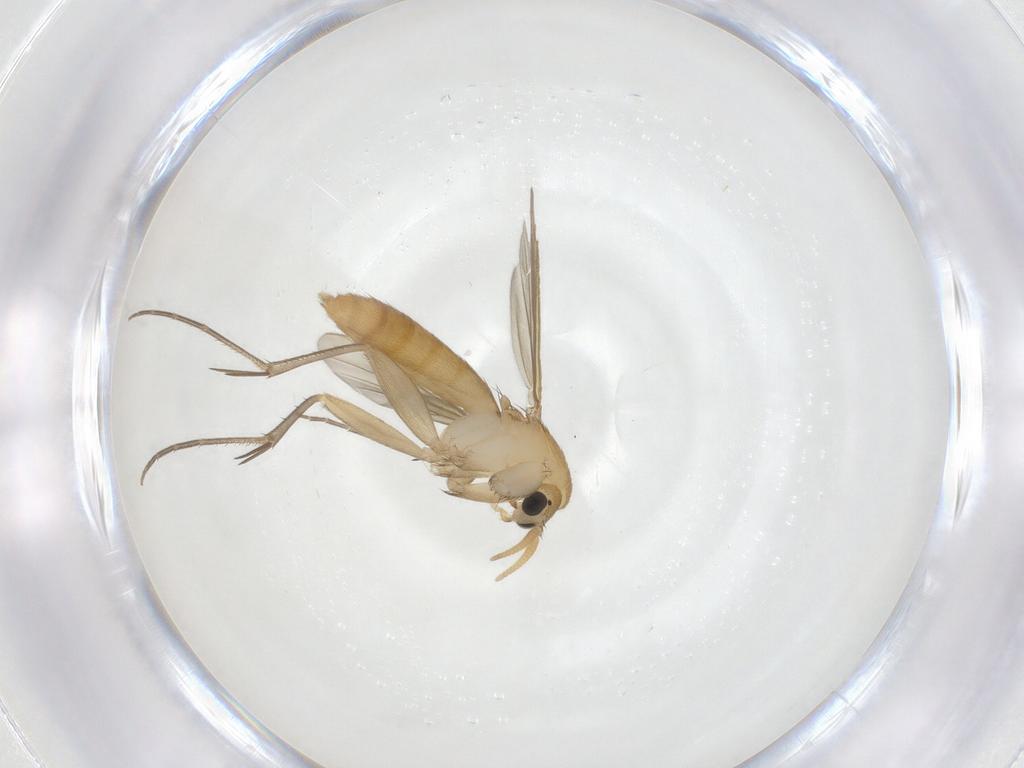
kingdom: Animalia
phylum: Arthropoda
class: Insecta
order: Diptera
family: Mycetophilidae
